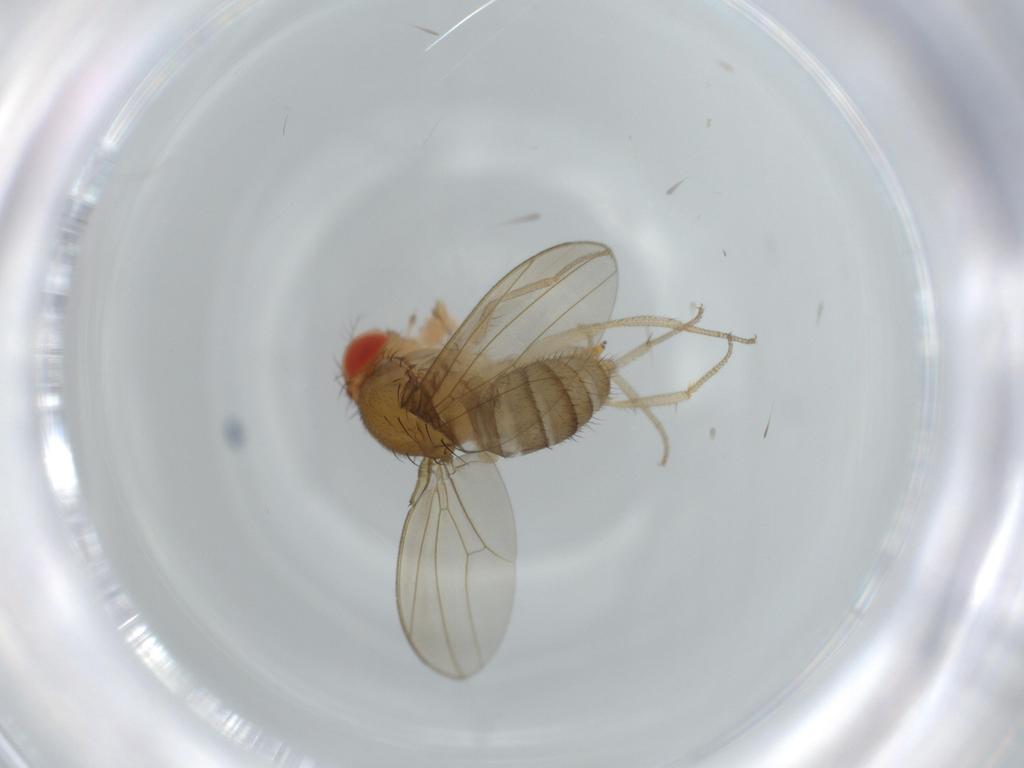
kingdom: Animalia
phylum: Arthropoda
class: Insecta
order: Diptera
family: Drosophilidae
